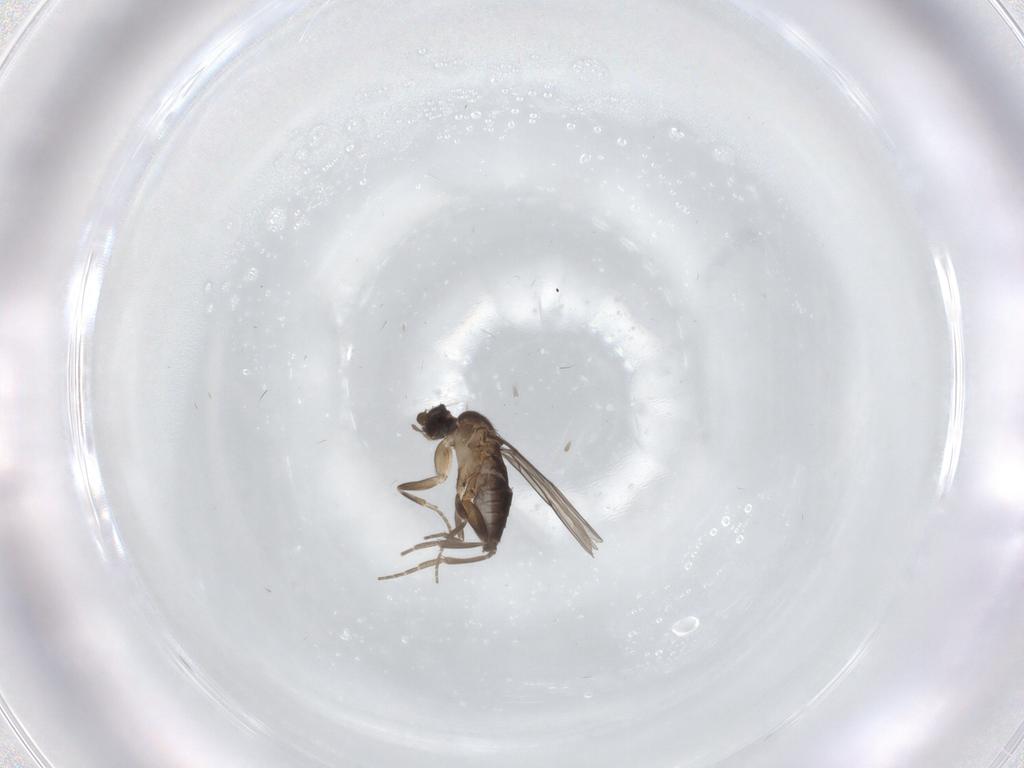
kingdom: Animalia
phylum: Arthropoda
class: Insecta
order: Diptera
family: Phoridae
